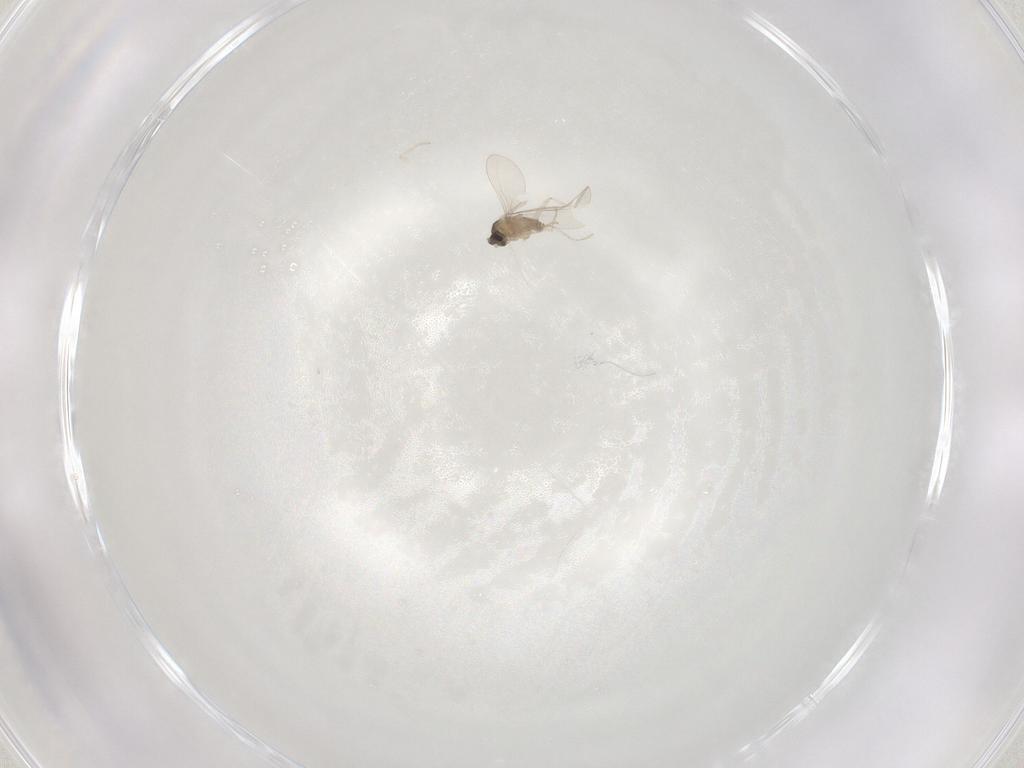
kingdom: Animalia
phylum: Arthropoda
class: Insecta
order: Diptera
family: Cecidomyiidae
